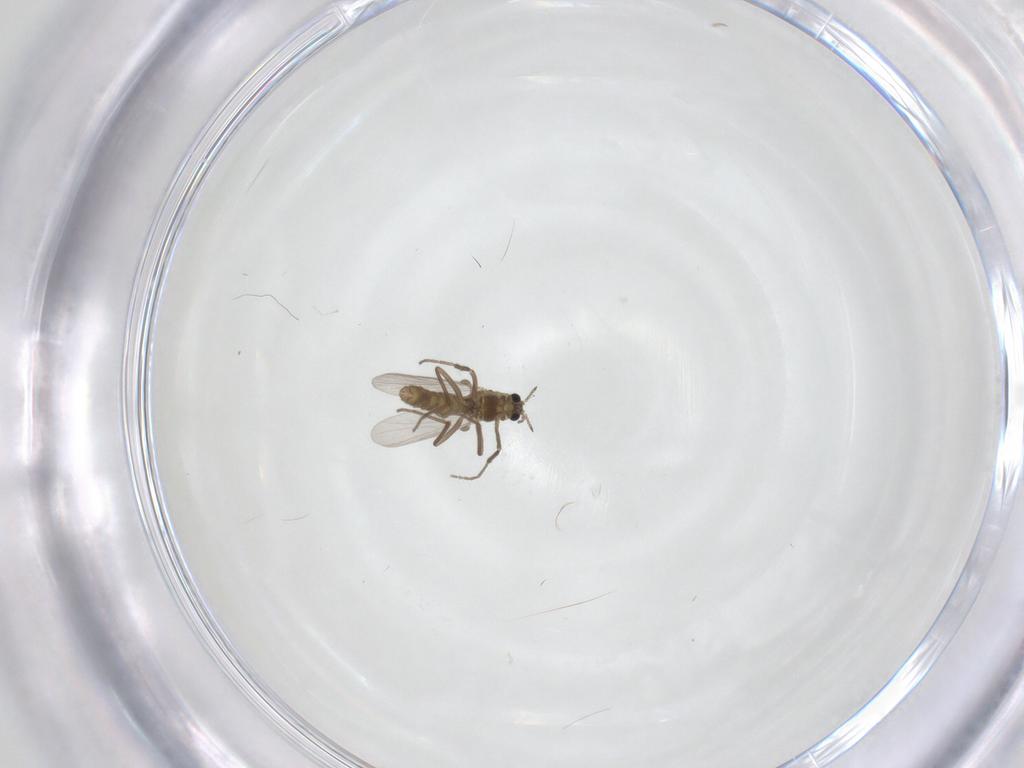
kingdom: Animalia
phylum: Arthropoda
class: Insecta
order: Diptera
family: Chironomidae
